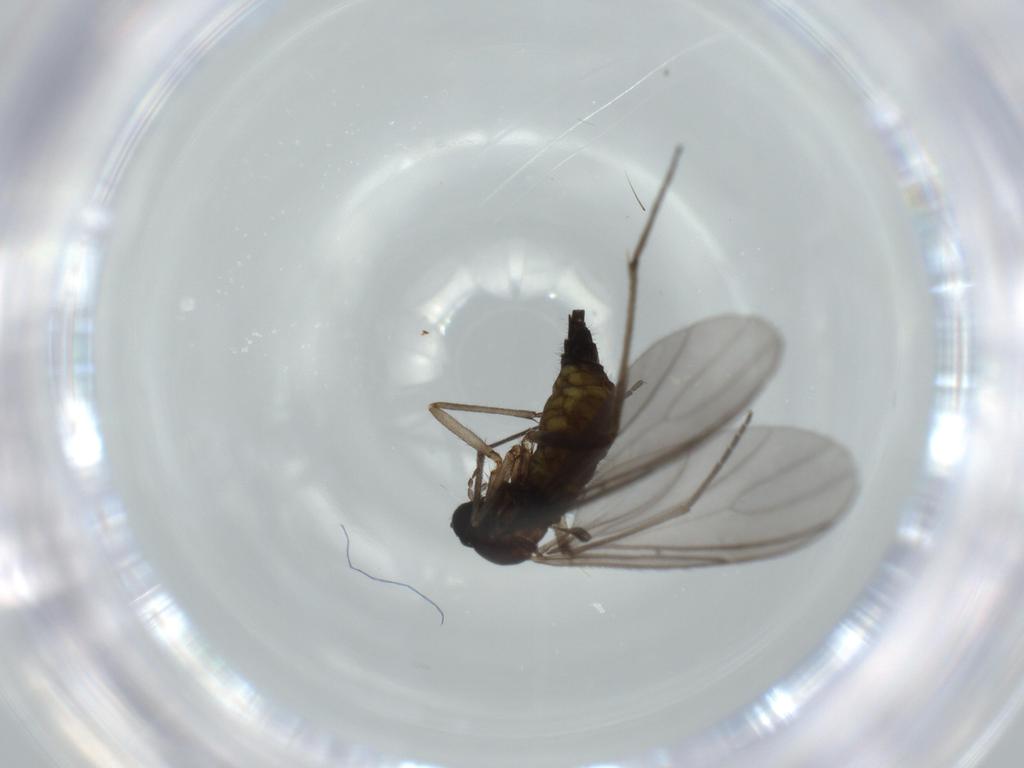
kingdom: Animalia
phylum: Arthropoda
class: Insecta
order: Diptera
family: Sciaridae
